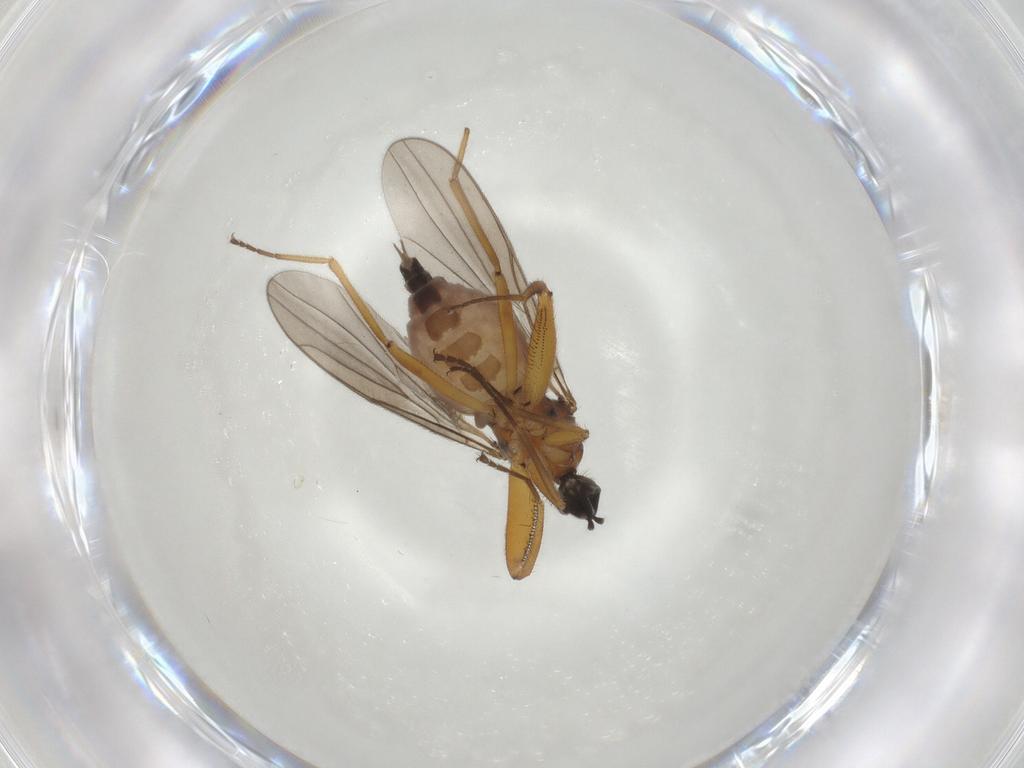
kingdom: Animalia
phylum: Arthropoda
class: Insecta
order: Diptera
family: Hybotidae
